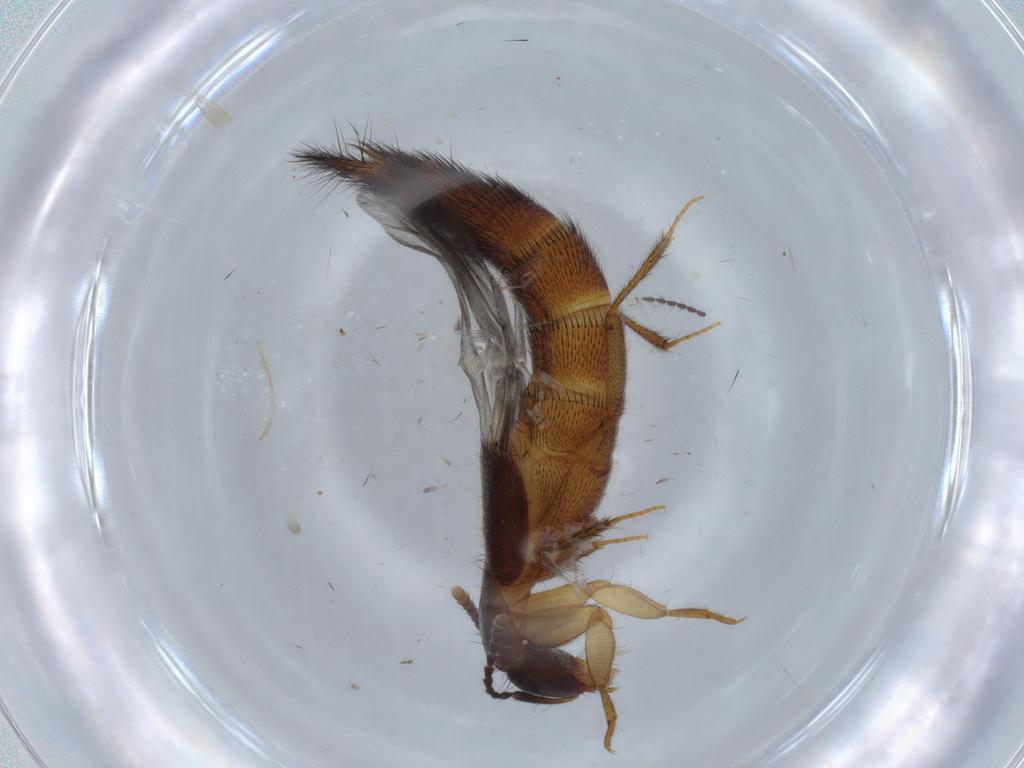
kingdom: Animalia
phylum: Arthropoda
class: Insecta
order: Coleoptera
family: Staphylinidae
